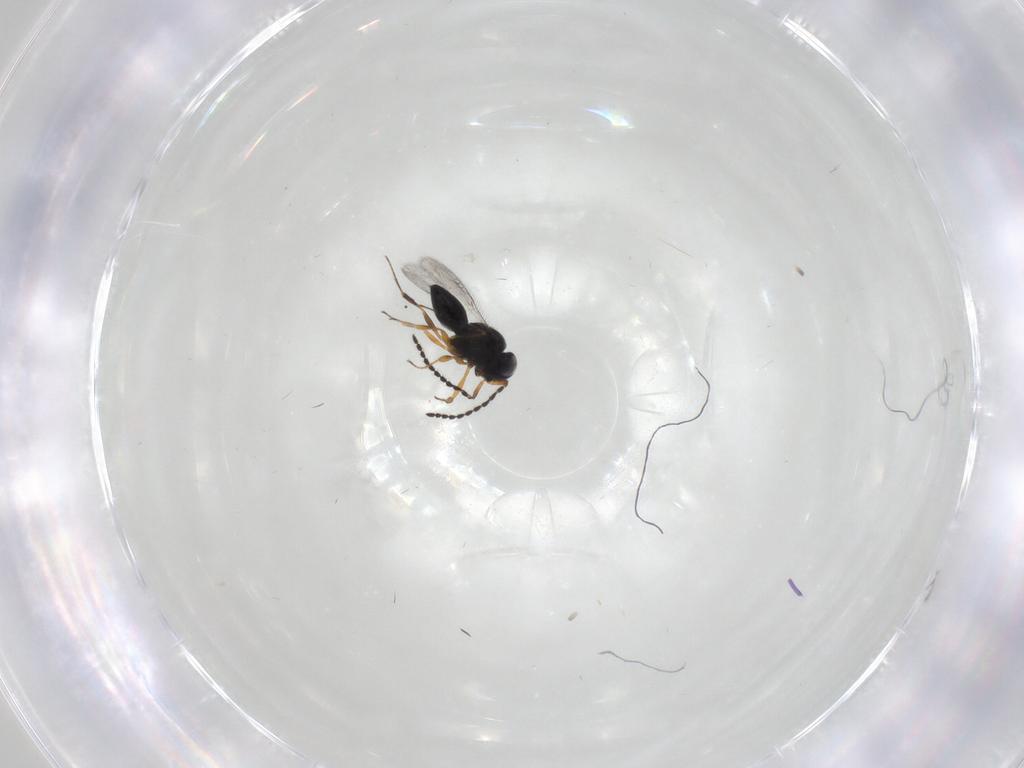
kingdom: Animalia
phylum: Arthropoda
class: Insecta
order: Hymenoptera
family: Scelionidae
